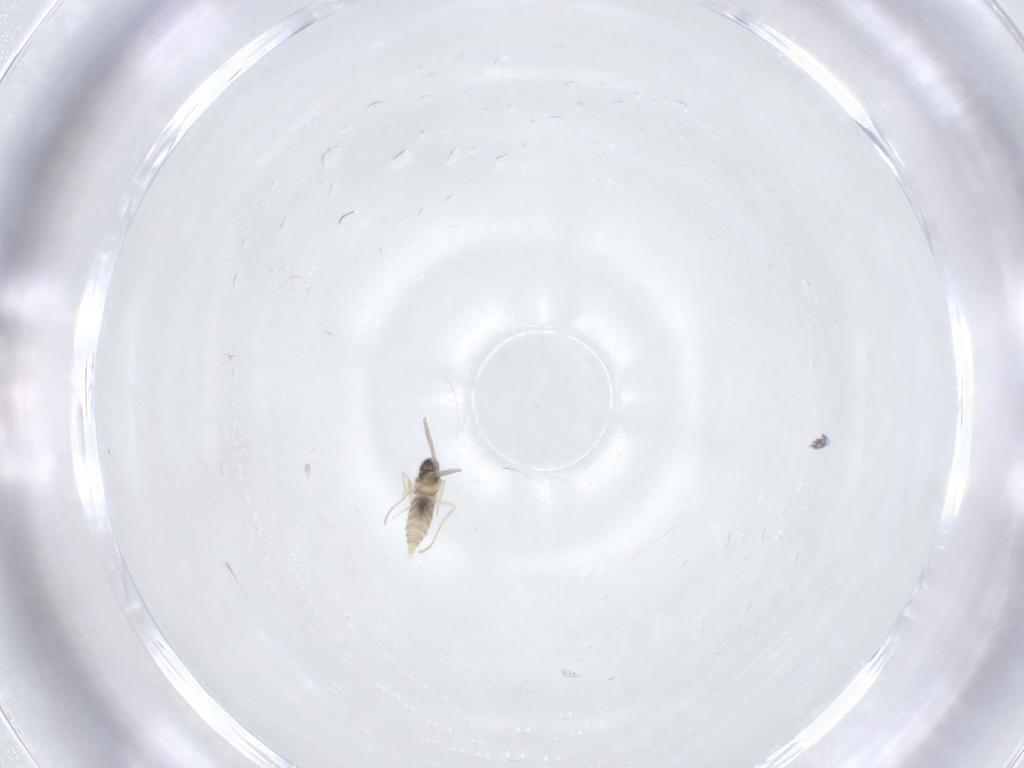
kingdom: Animalia
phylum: Arthropoda
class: Insecta
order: Diptera
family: Cecidomyiidae
